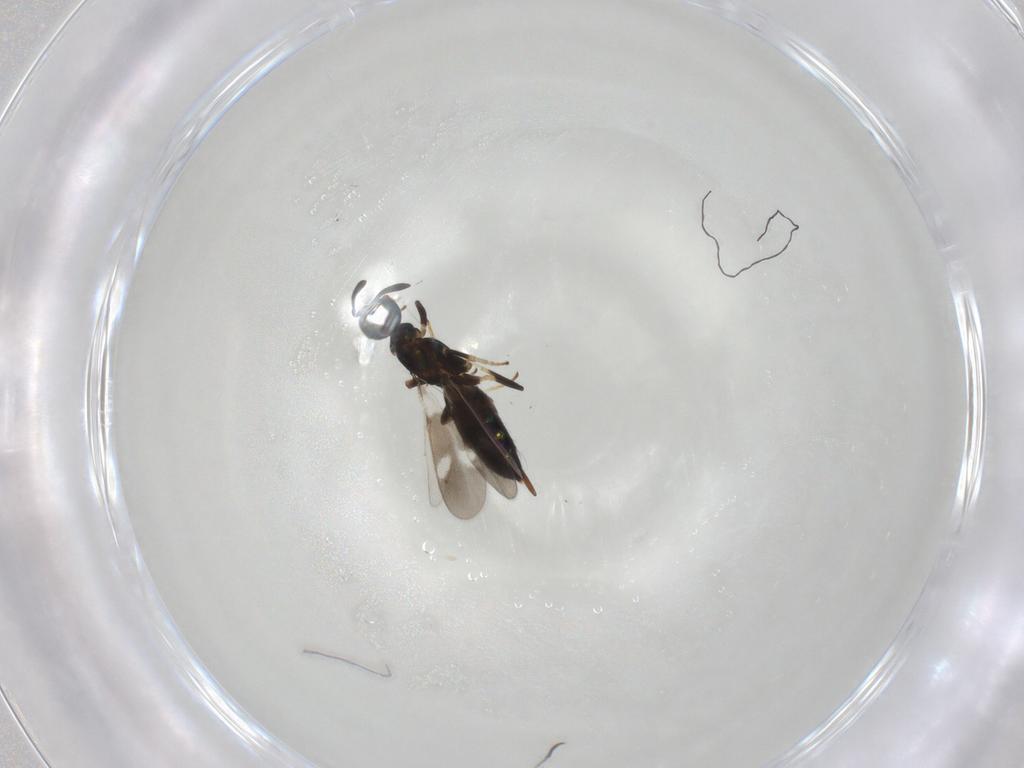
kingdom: Animalia
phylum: Arthropoda
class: Insecta
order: Hymenoptera
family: Eupelmidae
